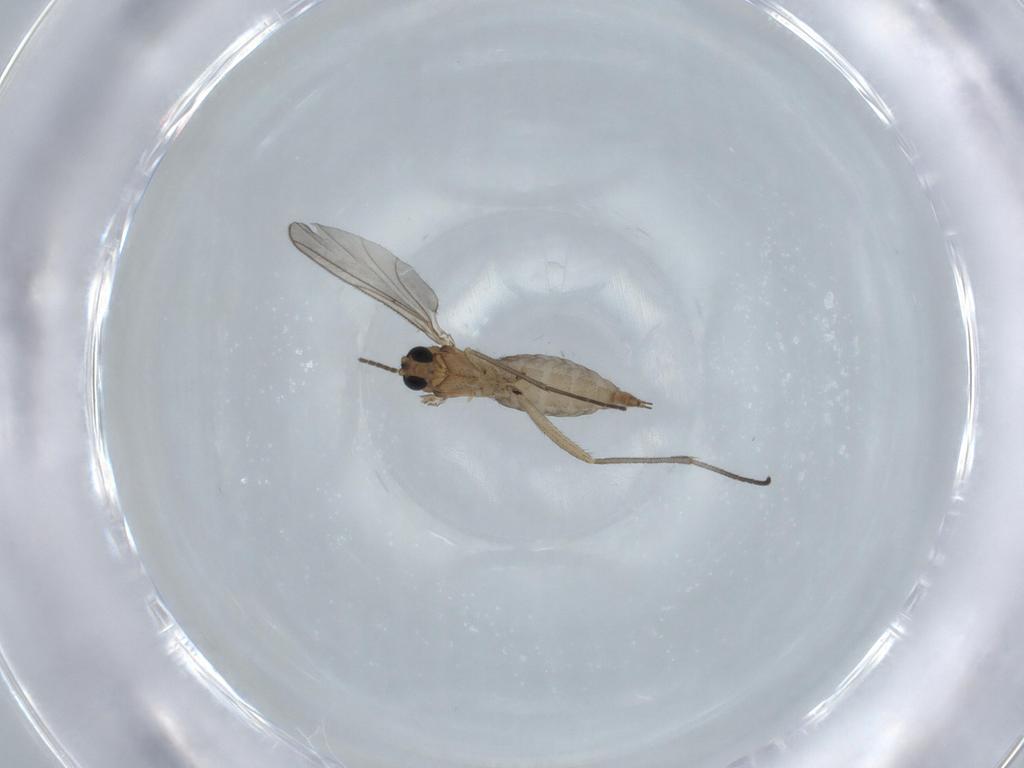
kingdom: Animalia
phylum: Arthropoda
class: Insecta
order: Diptera
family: Sciaridae
